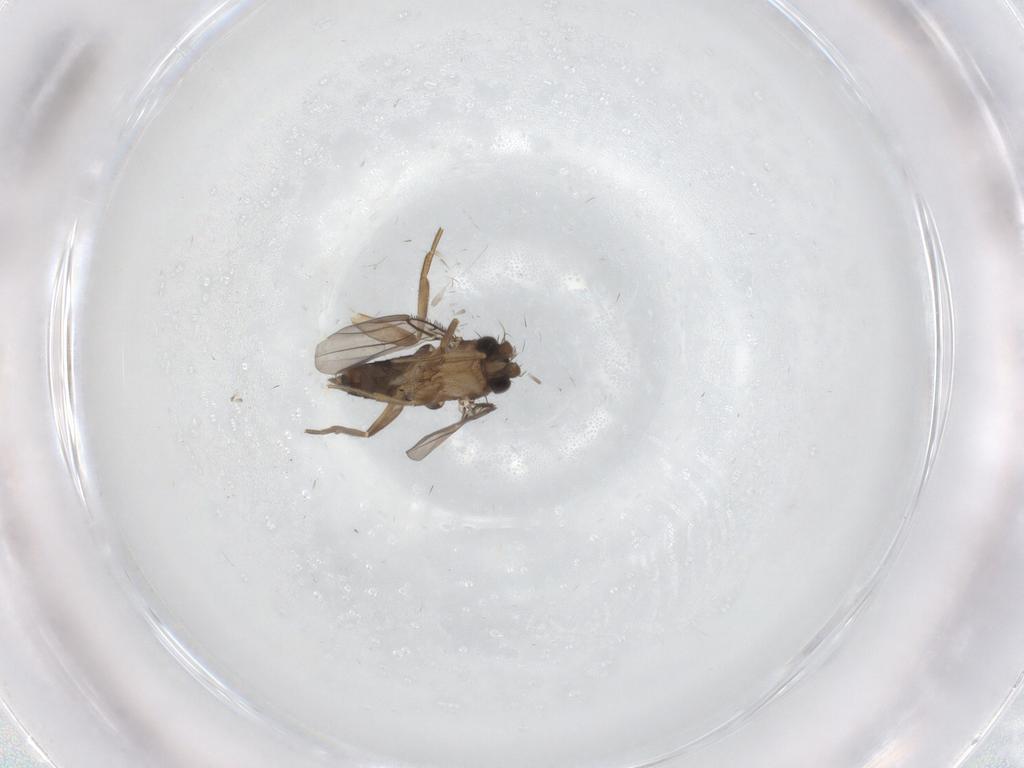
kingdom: Animalia
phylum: Arthropoda
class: Insecta
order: Diptera
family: Phoridae
